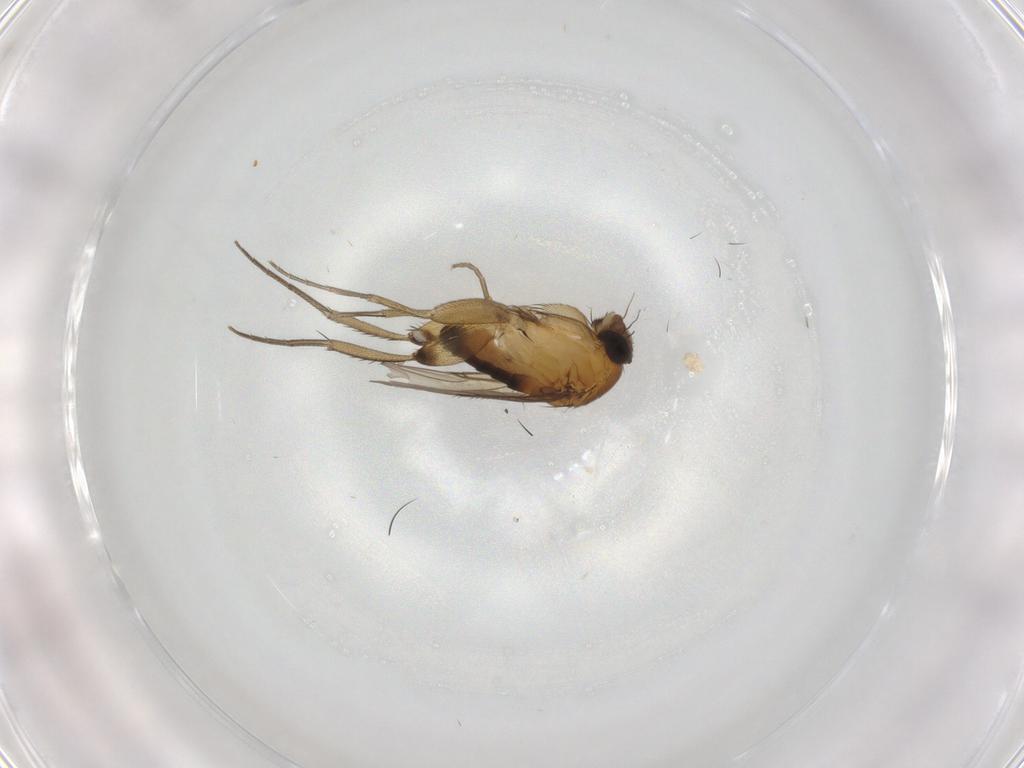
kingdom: Animalia
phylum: Arthropoda
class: Insecta
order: Diptera
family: Phoridae
